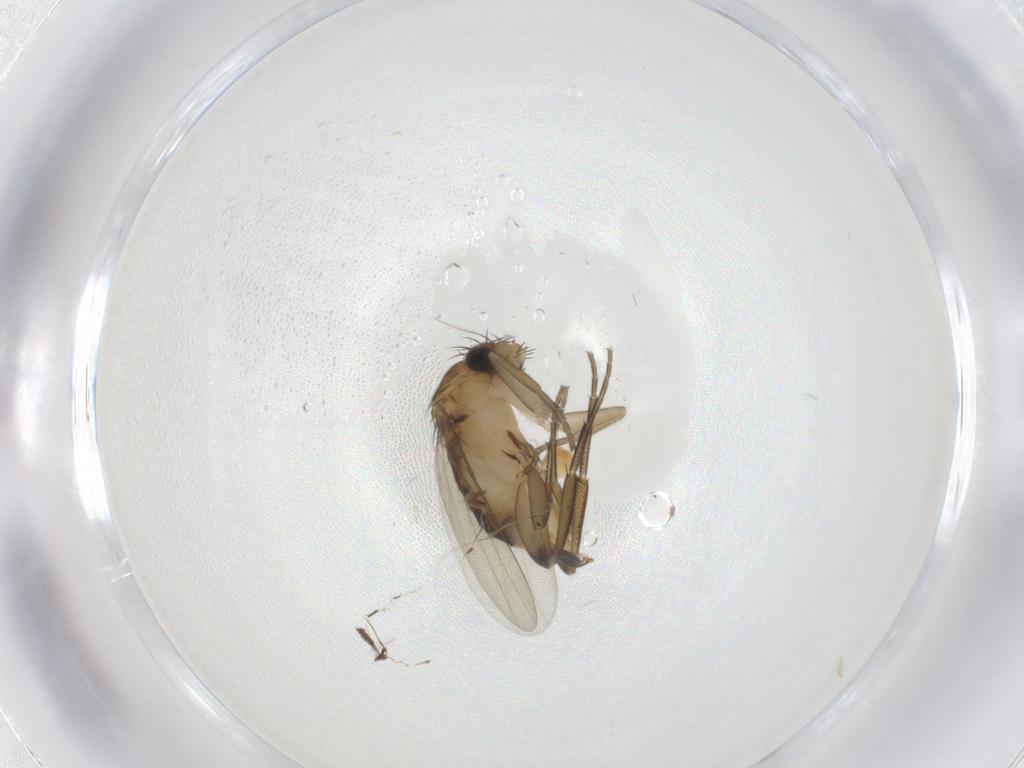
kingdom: Animalia
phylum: Arthropoda
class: Insecta
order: Diptera
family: Phoridae
